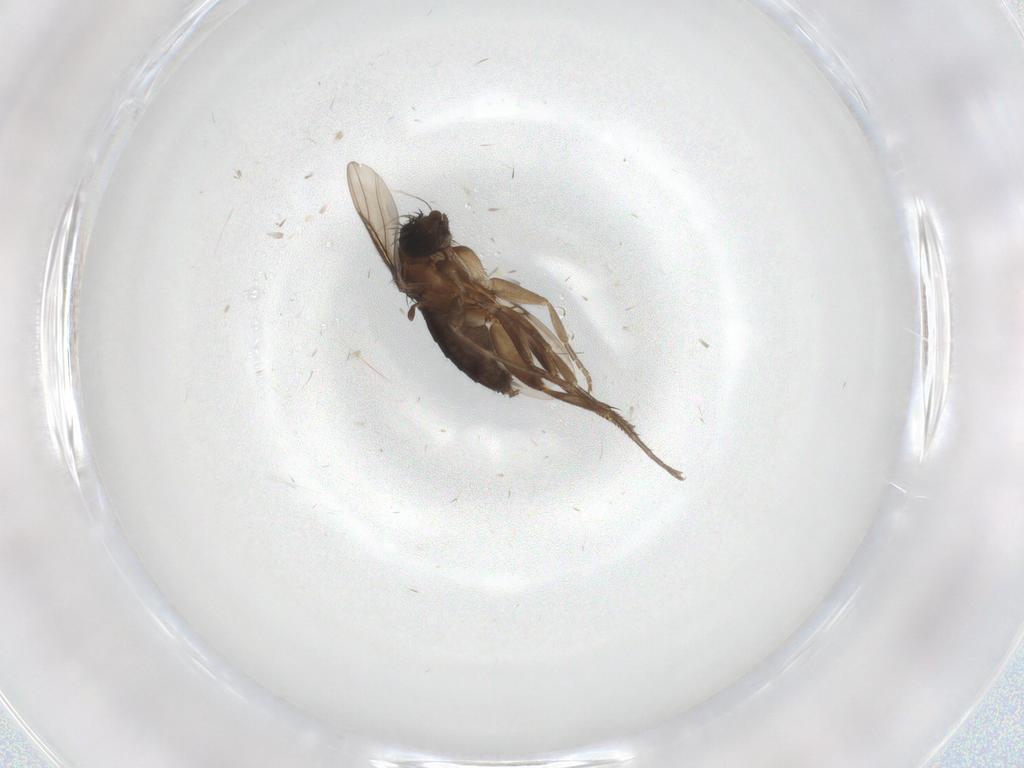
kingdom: Animalia
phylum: Arthropoda
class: Insecta
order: Diptera
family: Phoridae
